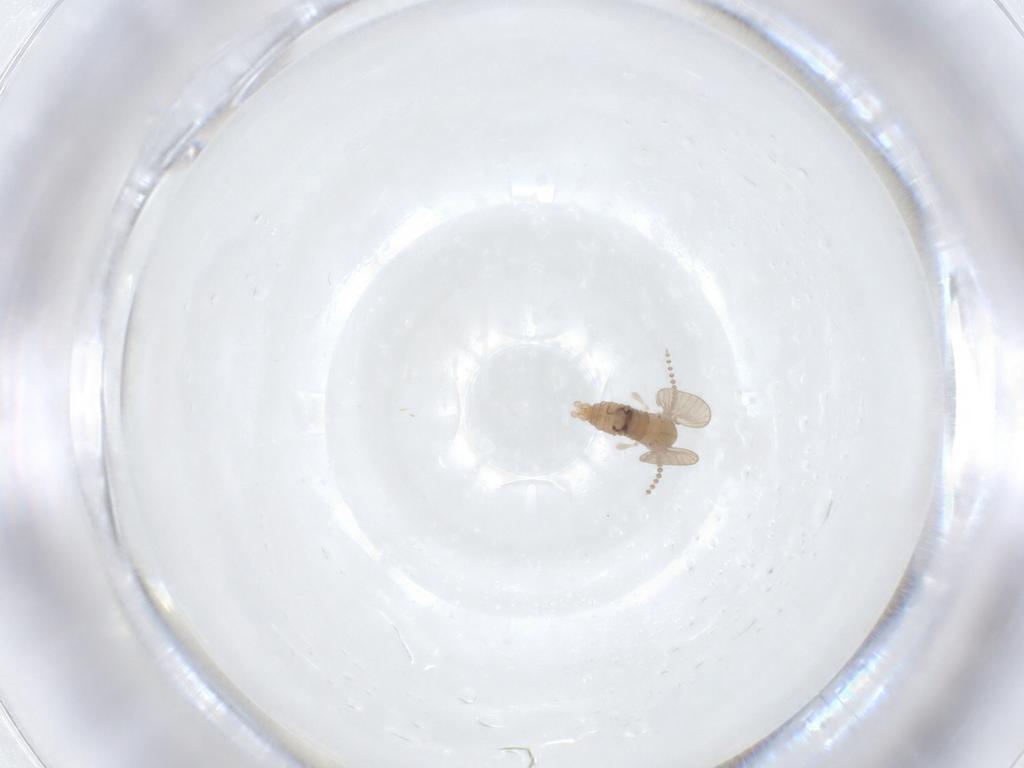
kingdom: Animalia
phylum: Arthropoda
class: Insecta
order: Diptera
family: Psychodidae
